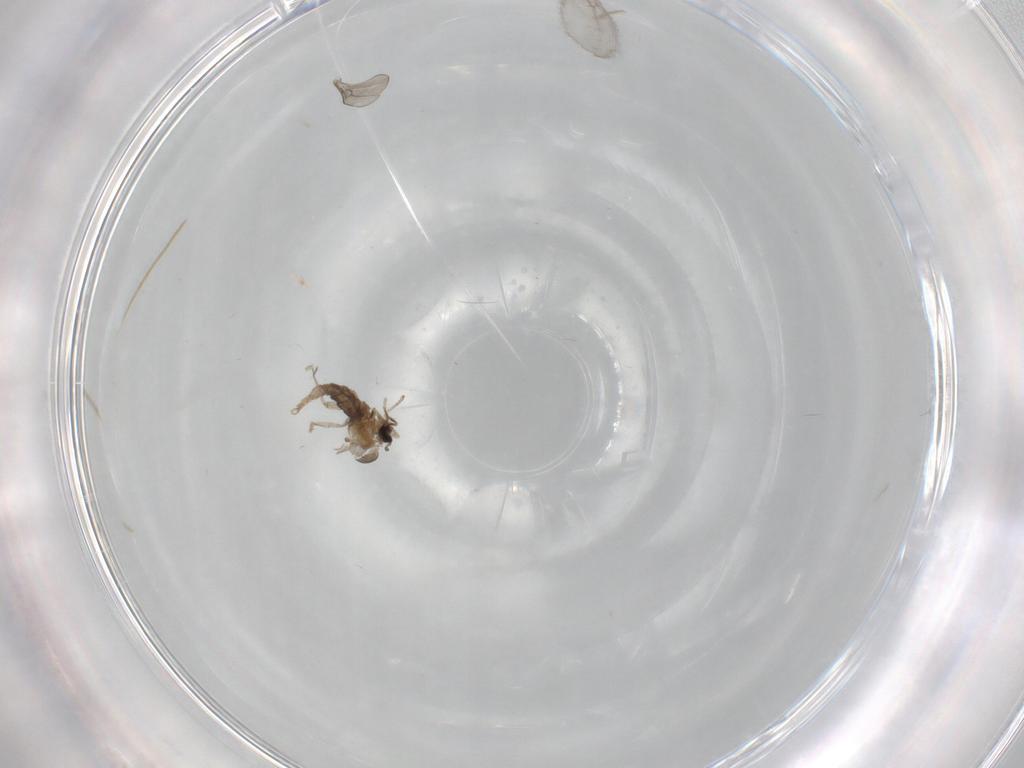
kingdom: Animalia
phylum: Arthropoda
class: Insecta
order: Diptera
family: Cecidomyiidae
